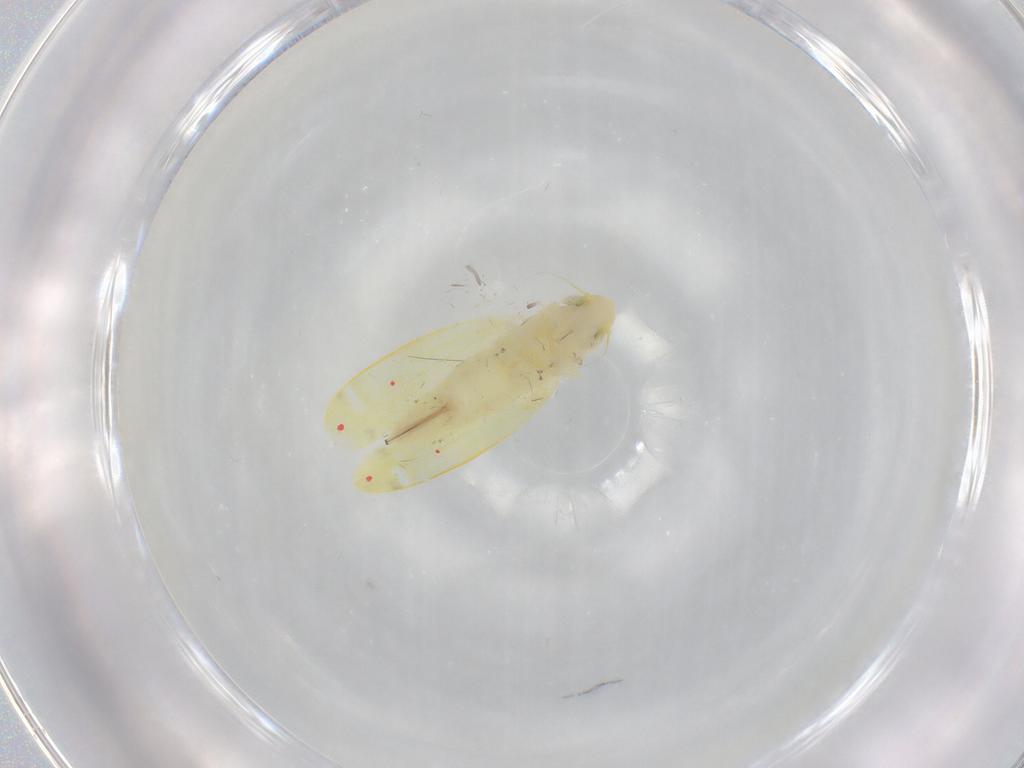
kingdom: Animalia
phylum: Arthropoda
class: Insecta
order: Hemiptera
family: Cicadellidae
